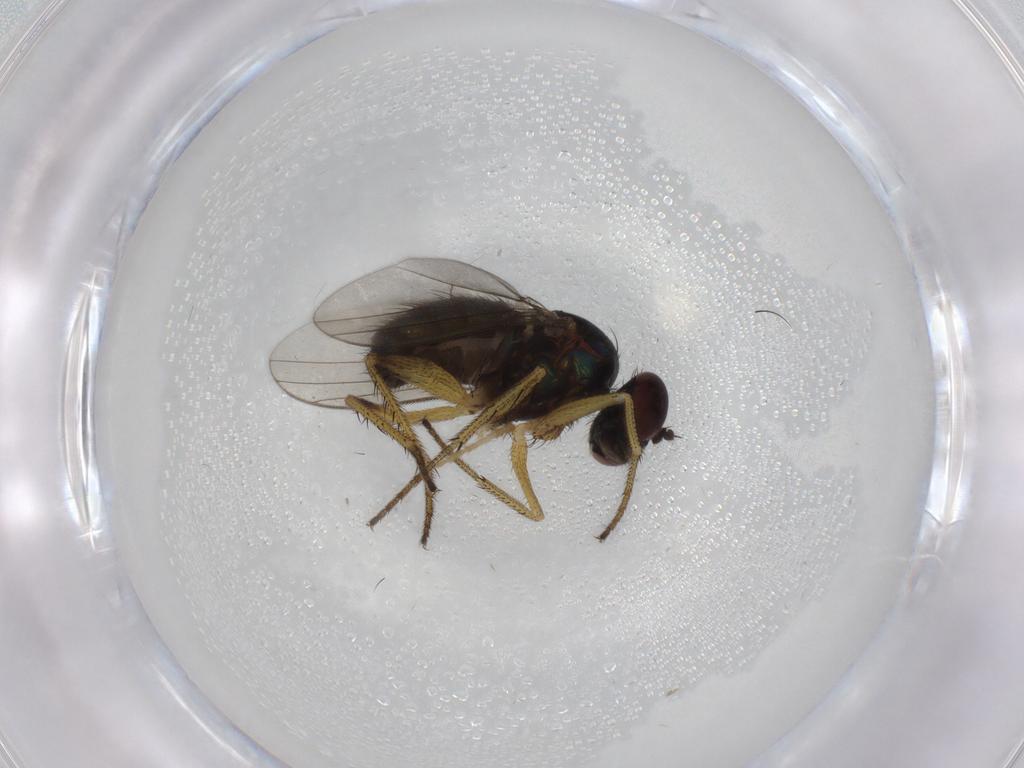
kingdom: Animalia
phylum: Arthropoda
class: Insecta
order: Diptera
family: Dolichopodidae
